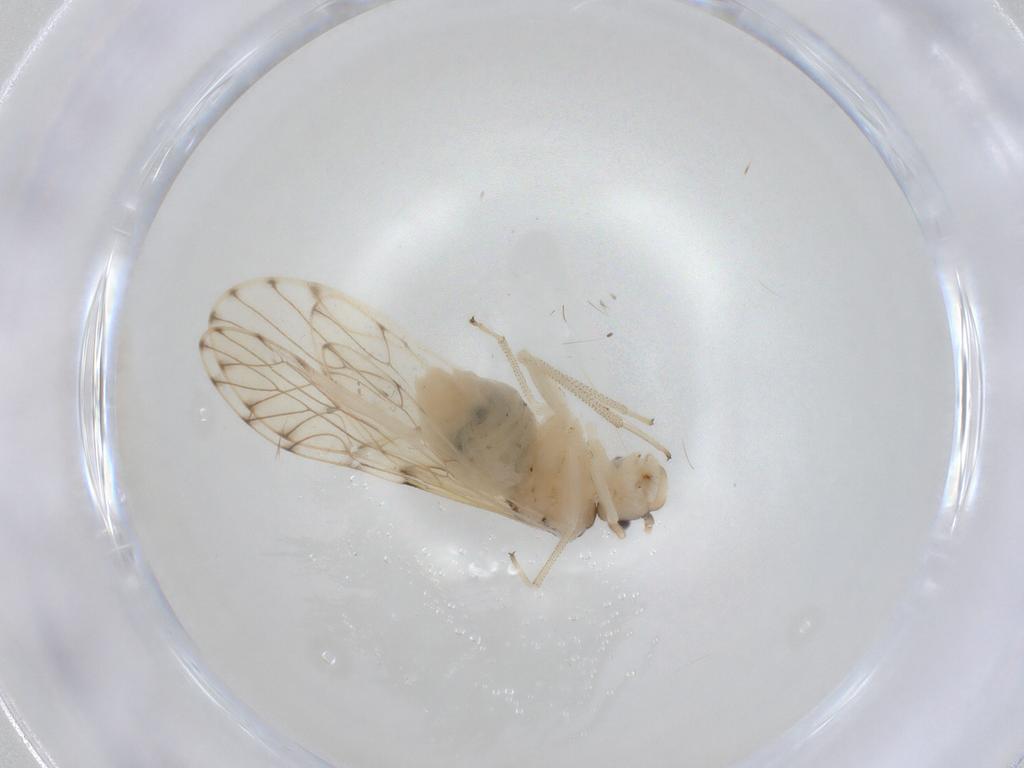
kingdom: Animalia
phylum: Arthropoda
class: Insecta
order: Psocodea
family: Philotarsidae
